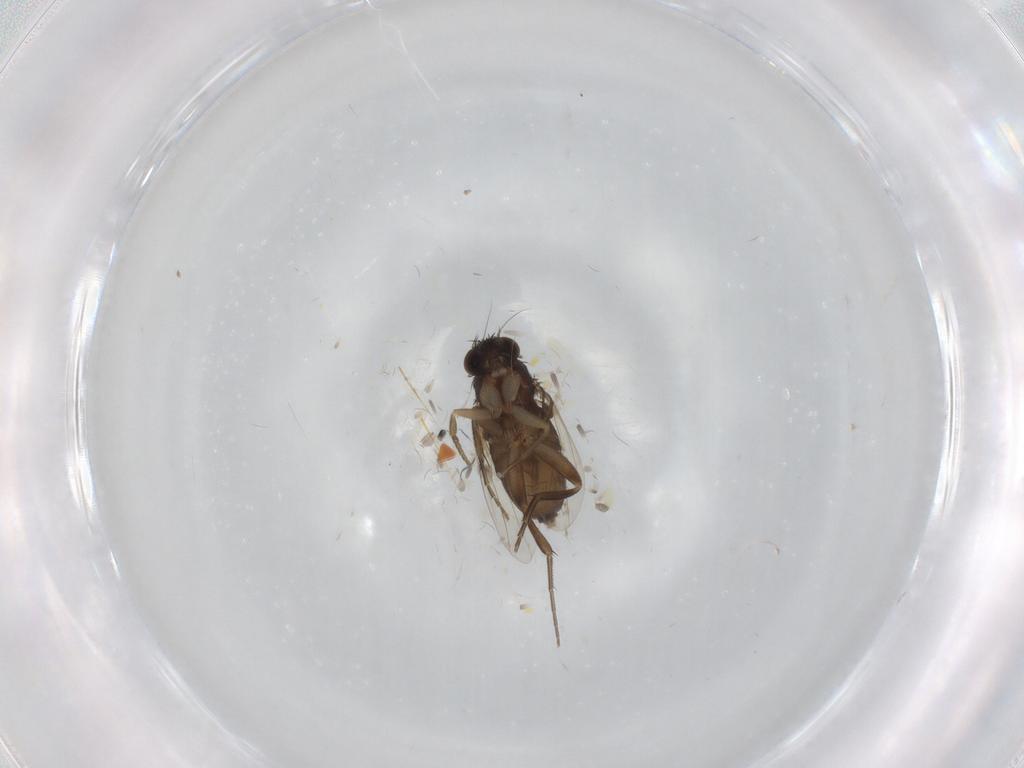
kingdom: Animalia
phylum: Arthropoda
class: Insecta
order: Diptera
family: Phoridae
